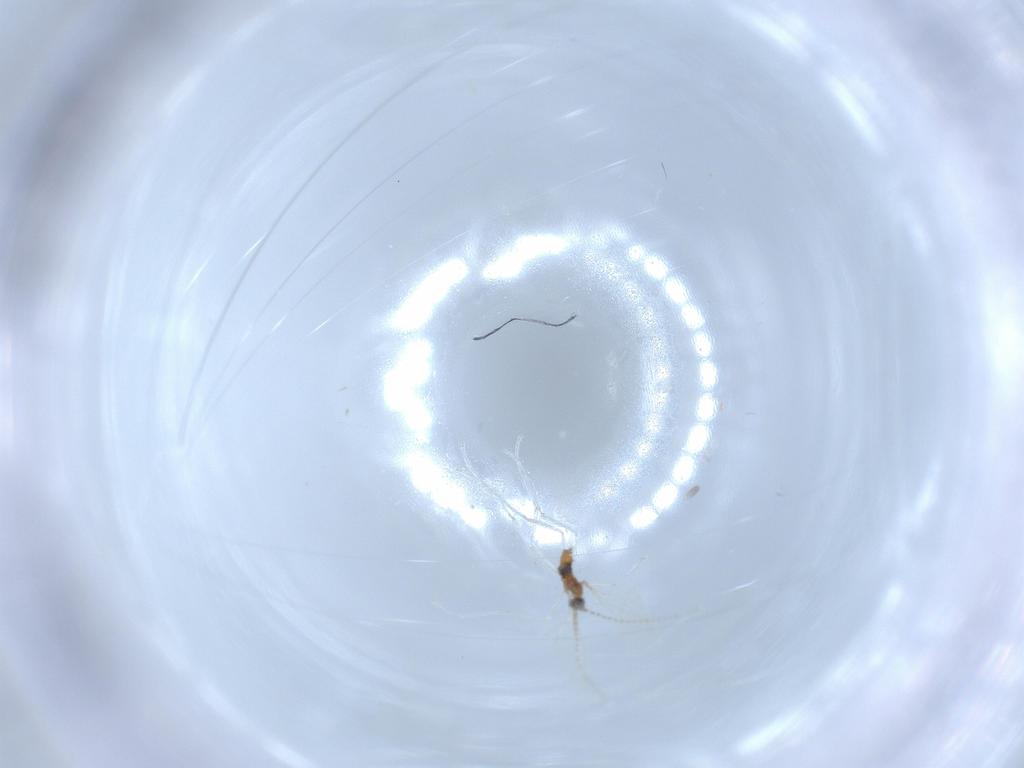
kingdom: Animalia
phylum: Arthropoda
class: Insecta
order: Diptera
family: Cecidomyiidae
